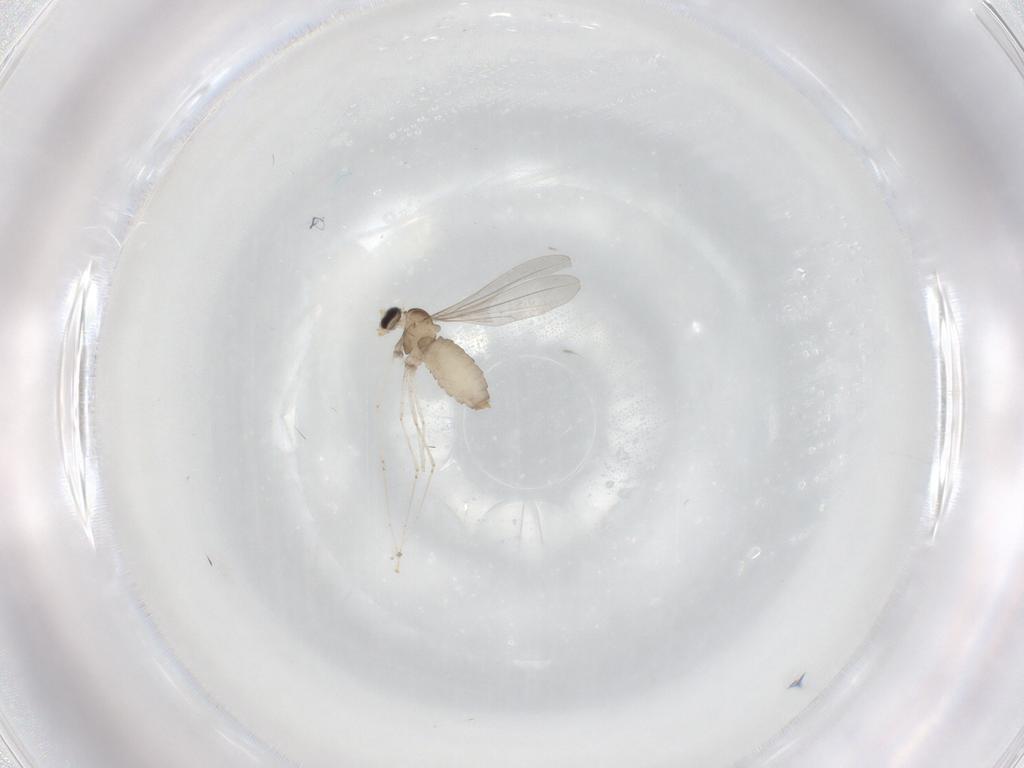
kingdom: Animalia
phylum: Arthropoda
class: Insecta
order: Diptera
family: Cecidomyiidae
